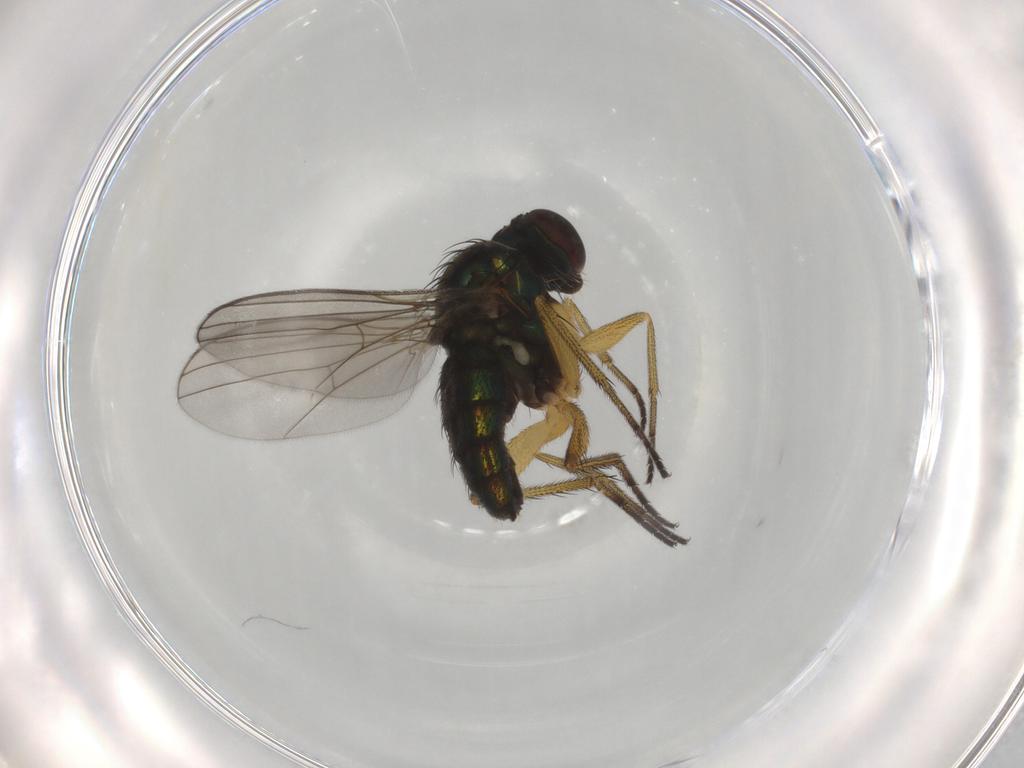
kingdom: Animalia
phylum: Arthropoda
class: Insecta
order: Diptera
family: Dolichopodidae
